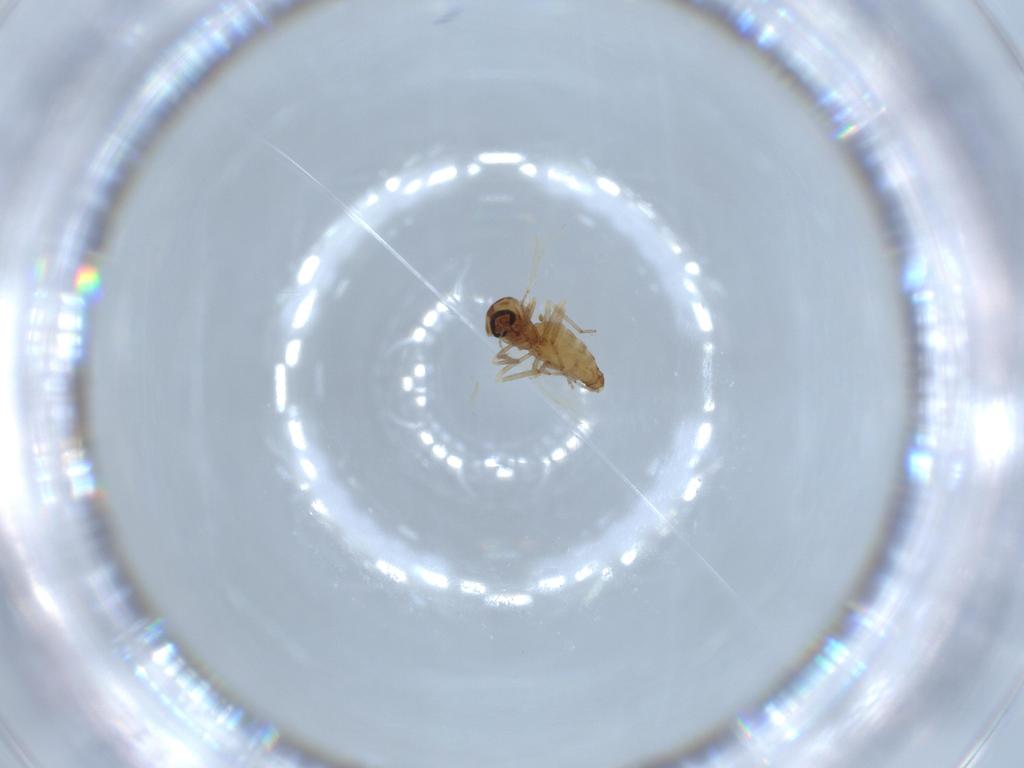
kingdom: Animalia
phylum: Arthropoda
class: Insecta
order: Diptera
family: Ceratopogonidae
